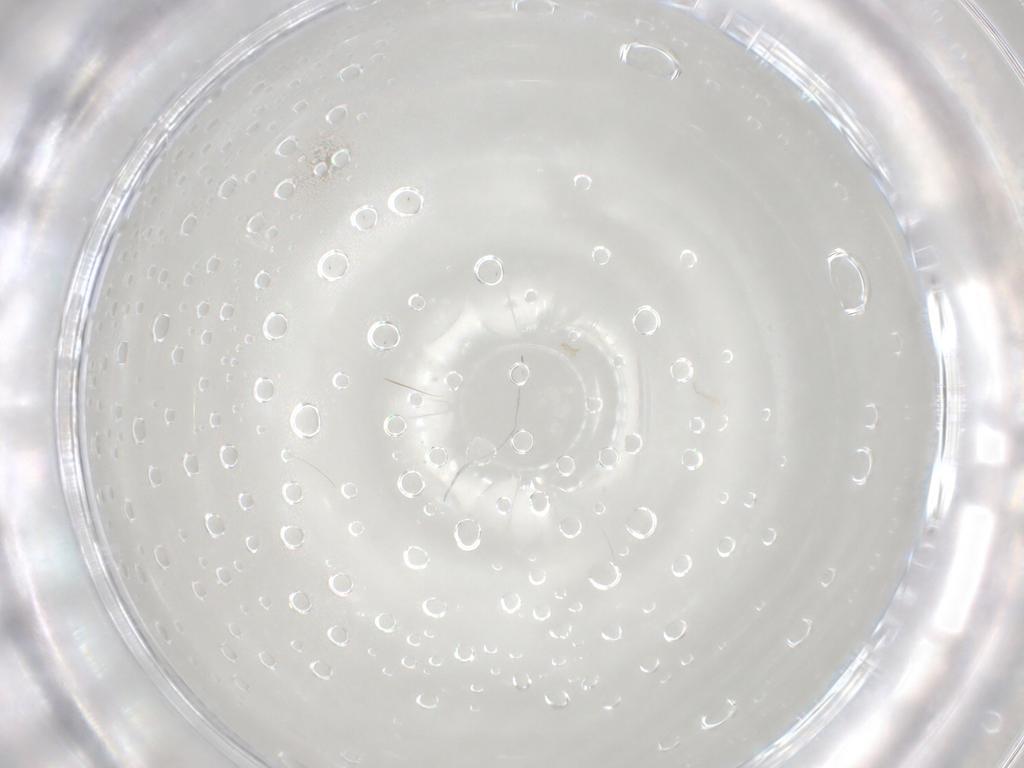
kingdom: Animalia
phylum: Arthropoda
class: Arachnida
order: Trombidiformes
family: Scutacaridae
